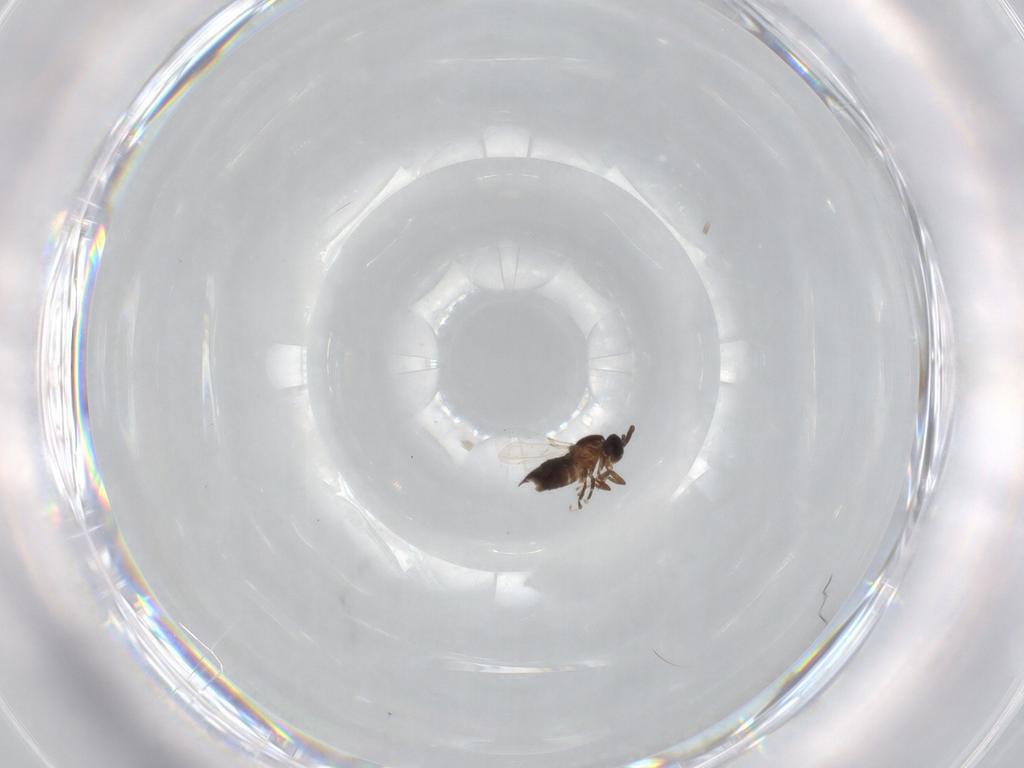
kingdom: Animalia
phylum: Arthropoda
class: Insecta
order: Diptera
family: Scatopsidae
